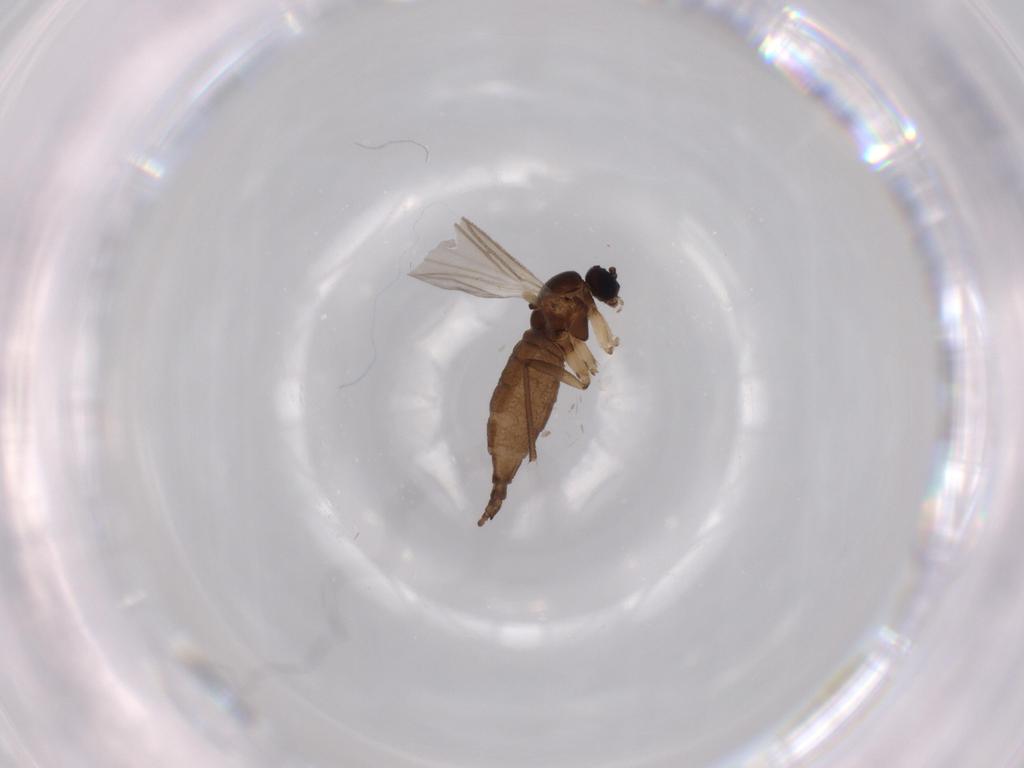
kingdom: Animalia
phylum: Arthropoda
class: Insecta
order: Diptera
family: Syrphidae
